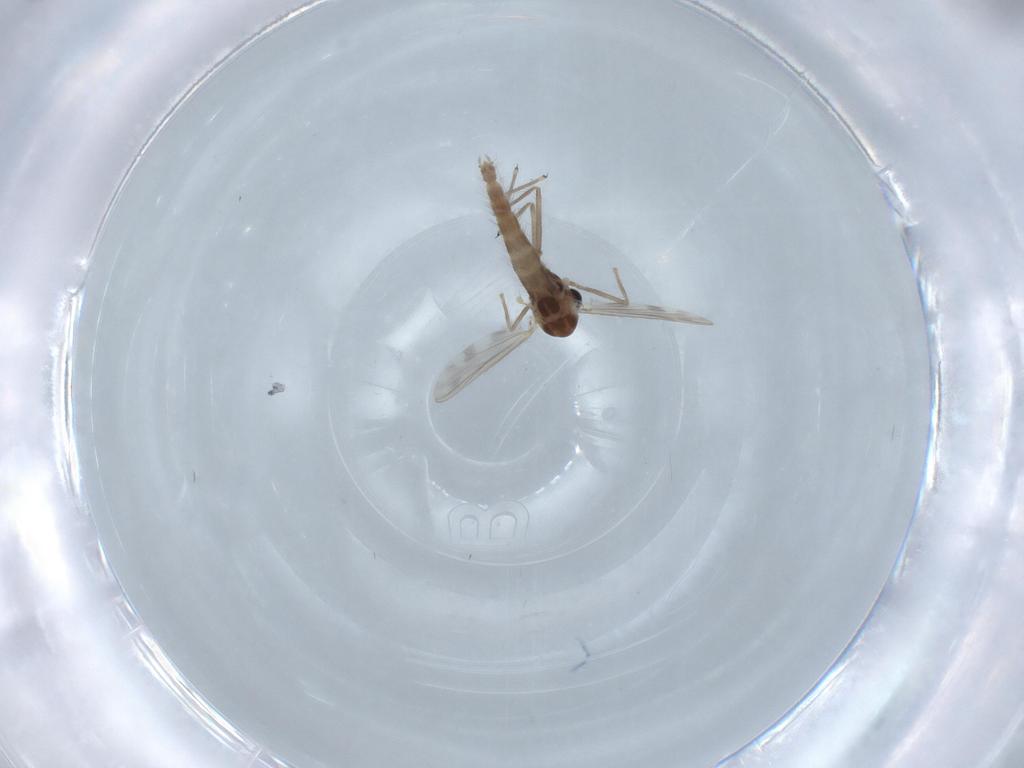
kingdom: Animalia
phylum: Arthropoda
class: Insecta
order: Diptera
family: Chironomidae
